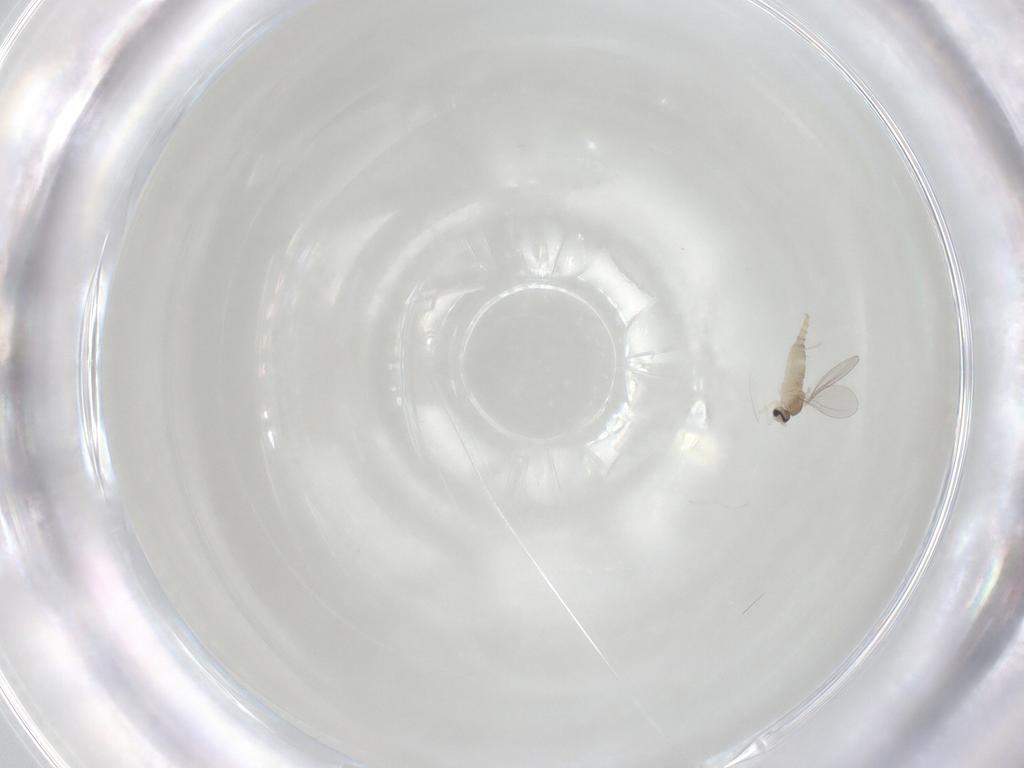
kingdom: Animalia
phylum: Arthropoda
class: Insecta
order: Diptera
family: Cecidomyiidae
